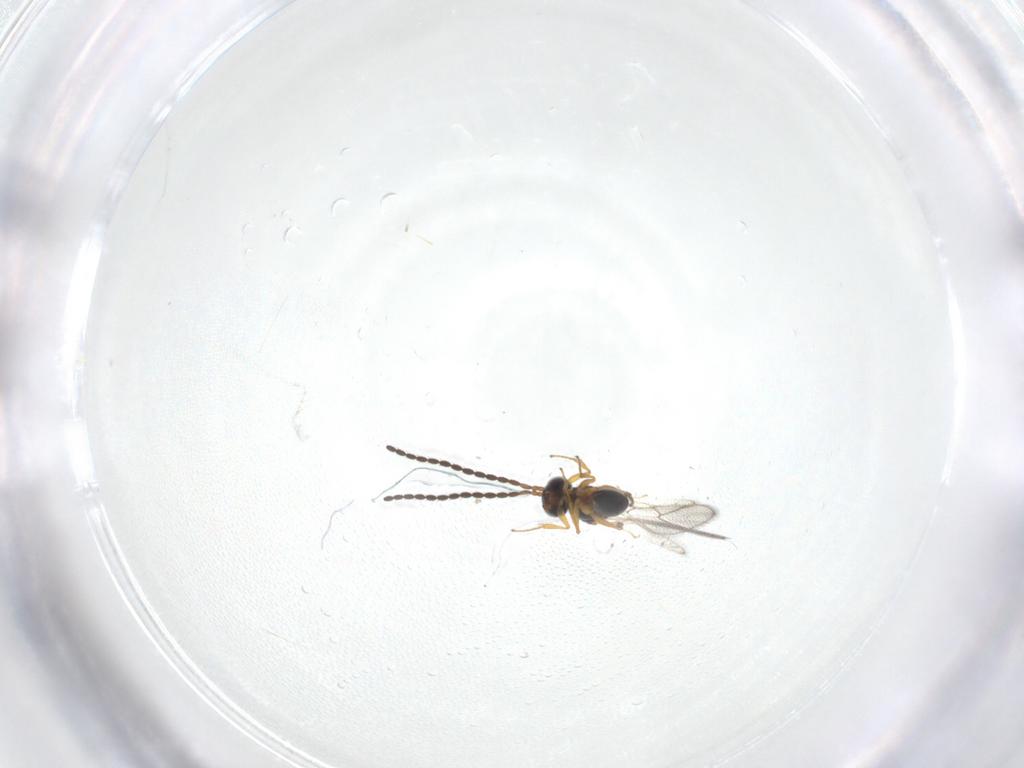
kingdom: Animalia
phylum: Arthropoda
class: Insecta
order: Hymenoptera
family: Figitidae
